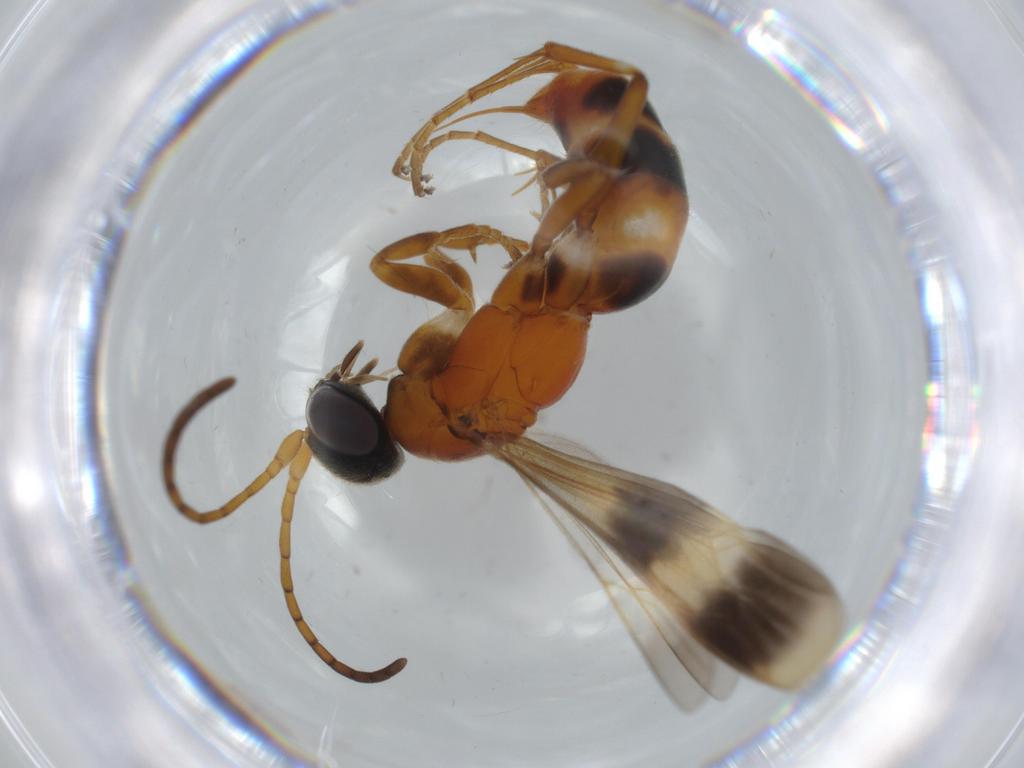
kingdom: Animalia
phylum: Arthropoda
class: Insecta
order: Hymenoptera
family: Pompilidae
